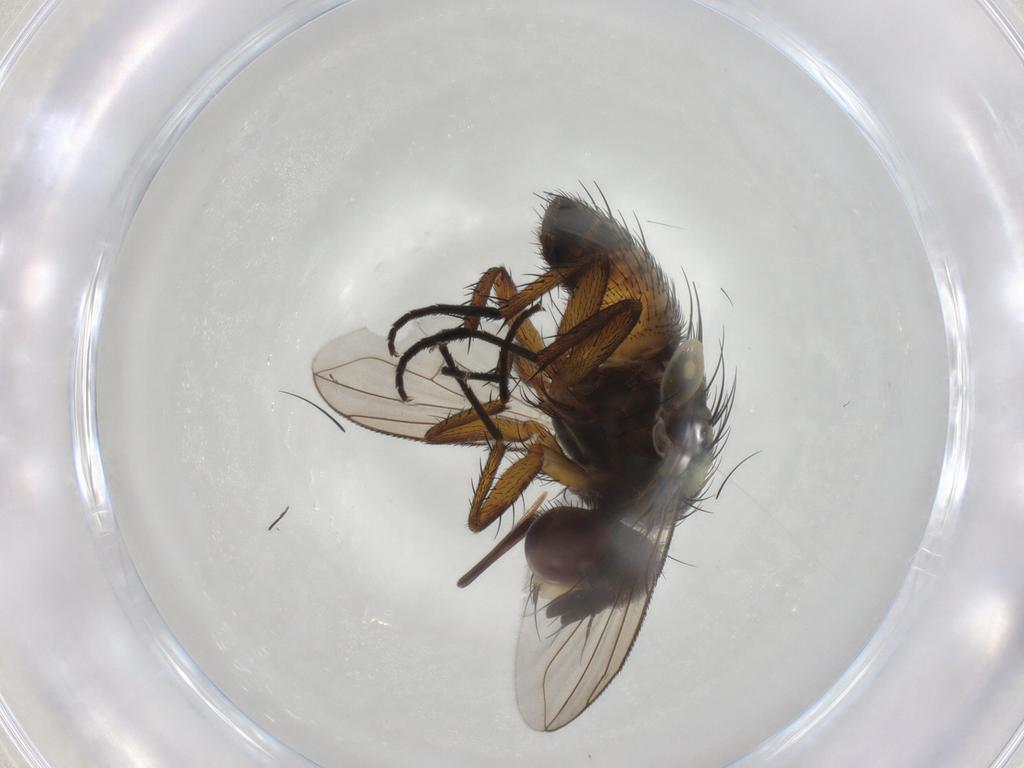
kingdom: Animalia
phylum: Arthropoda
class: Insecta
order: Diptera
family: Tachinidae
